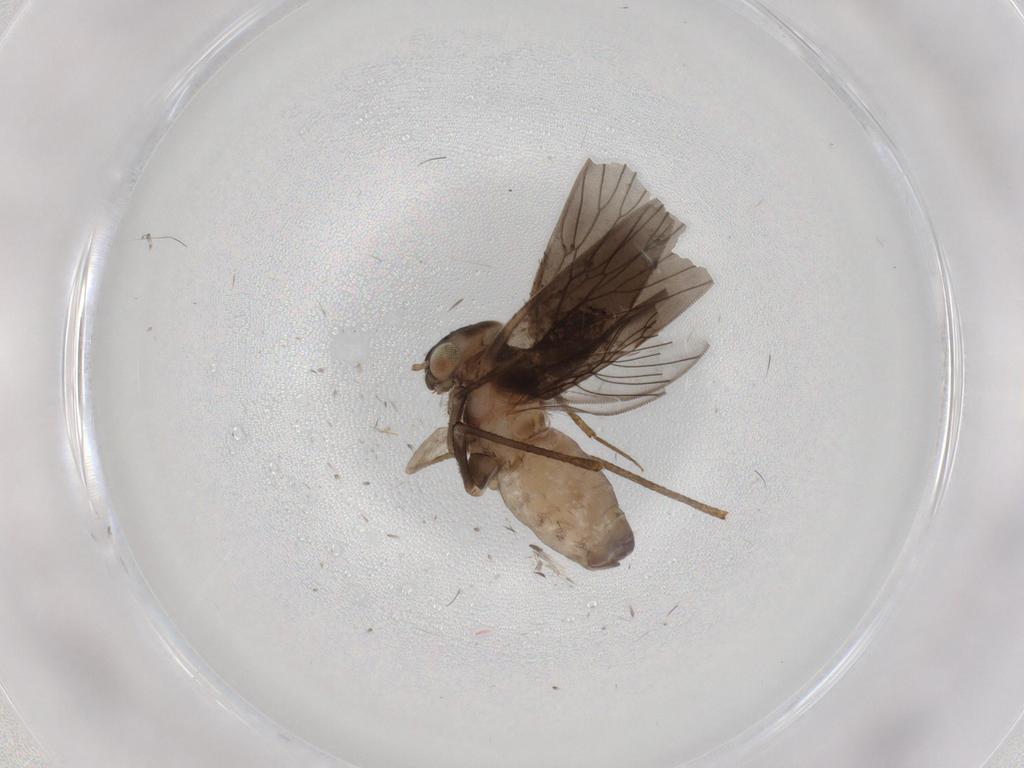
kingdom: Animalia
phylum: Arthropoda
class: Insecta
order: Psocodea
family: Lepidopsocidae
